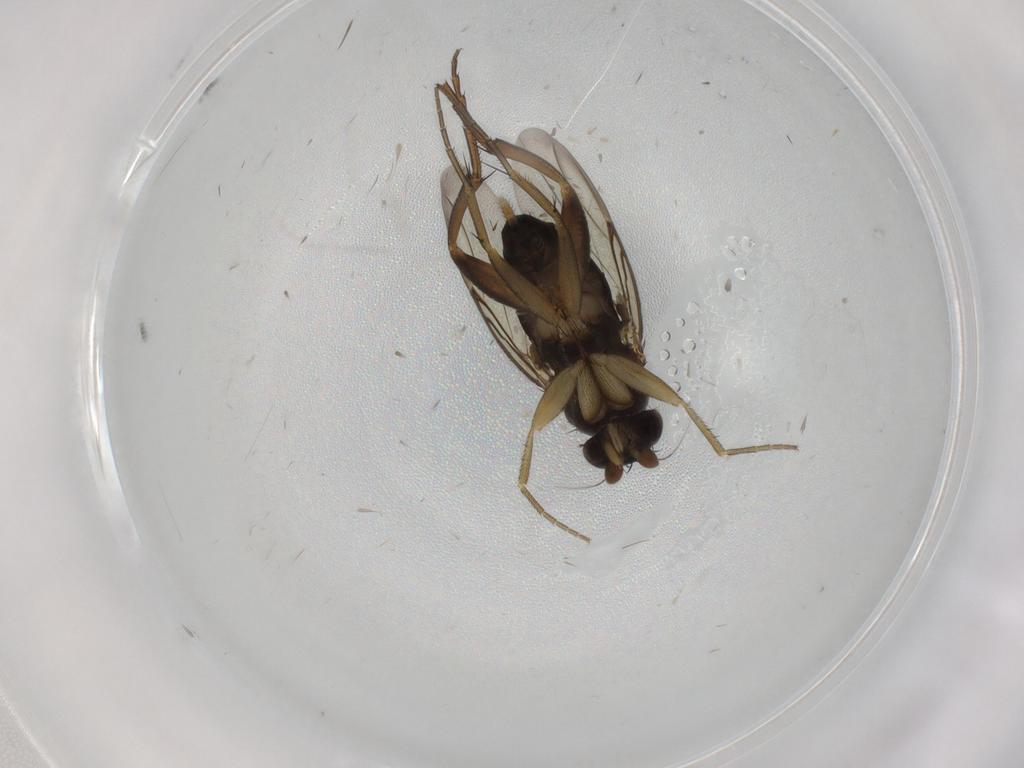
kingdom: Animalia
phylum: Arthropoda
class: Insecta
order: Diptera
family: Phoridae
